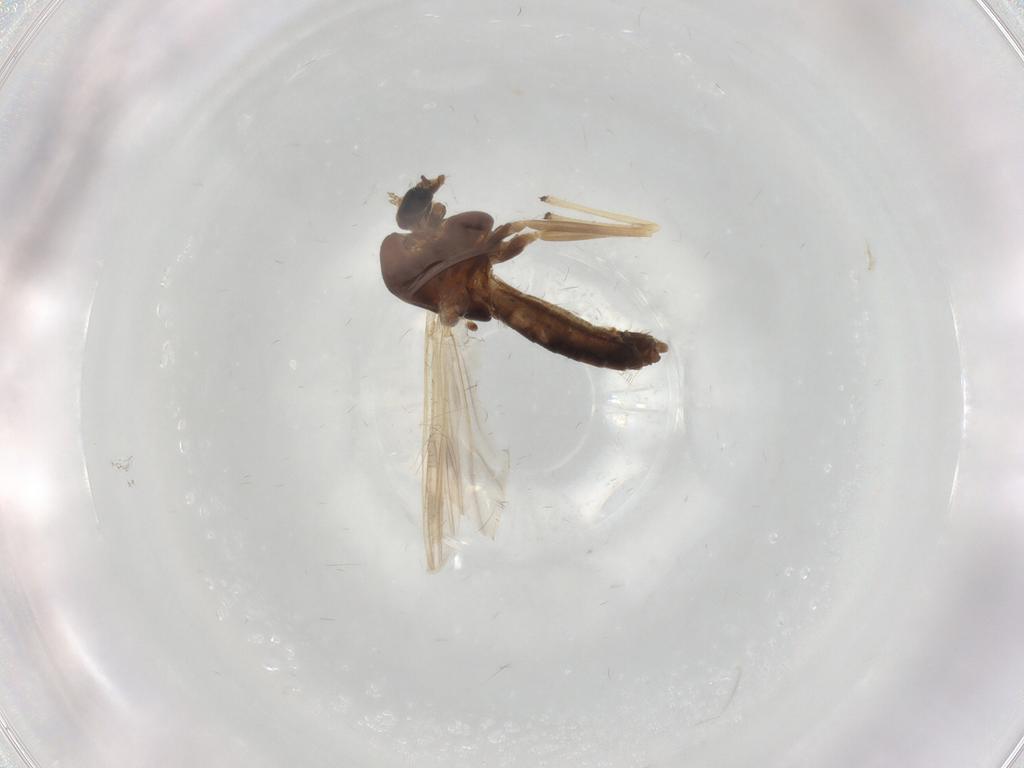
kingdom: Animalia
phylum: Arthropoda
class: Insecta
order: Diptera
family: Chironomidae
